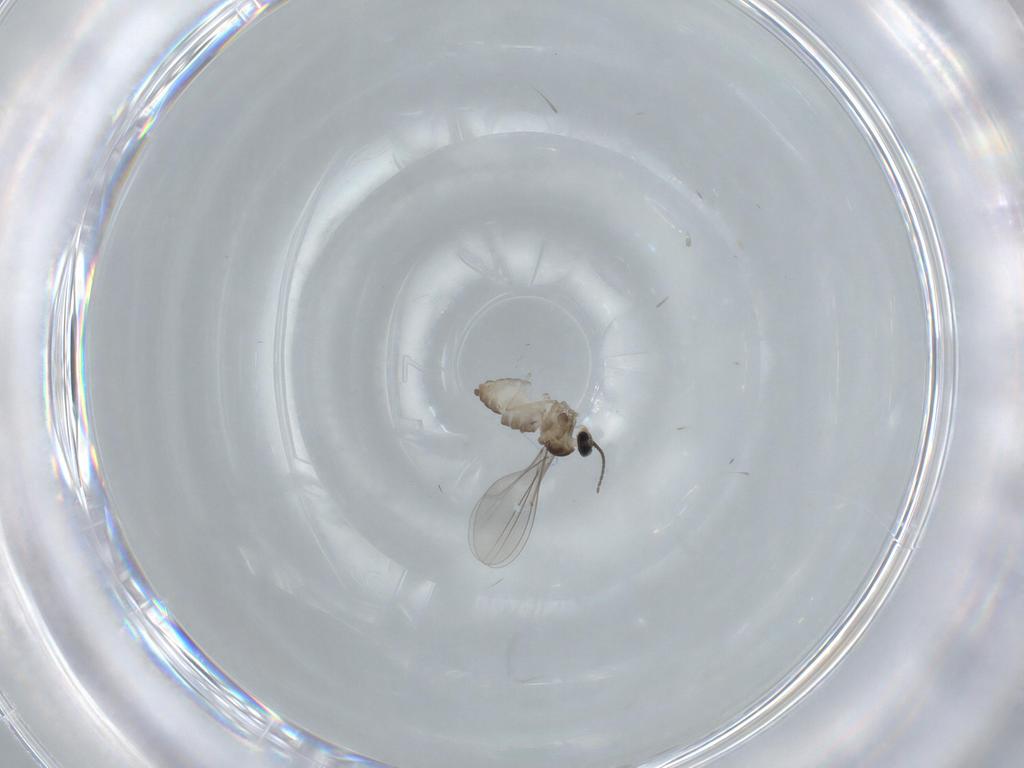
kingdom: Animalia
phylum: Arthropoda
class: Insecta
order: Diptera
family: Cecidomyiidae
